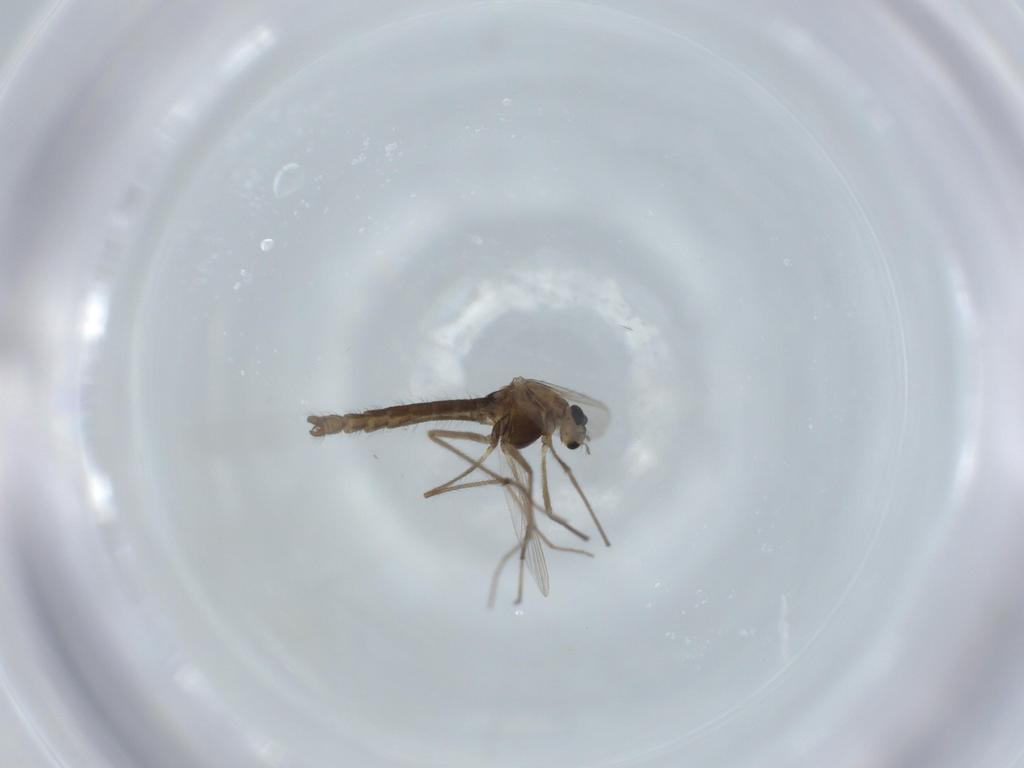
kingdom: Animalia
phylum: Arthropoda
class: Insecta
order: Diptera
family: Chironomidae
